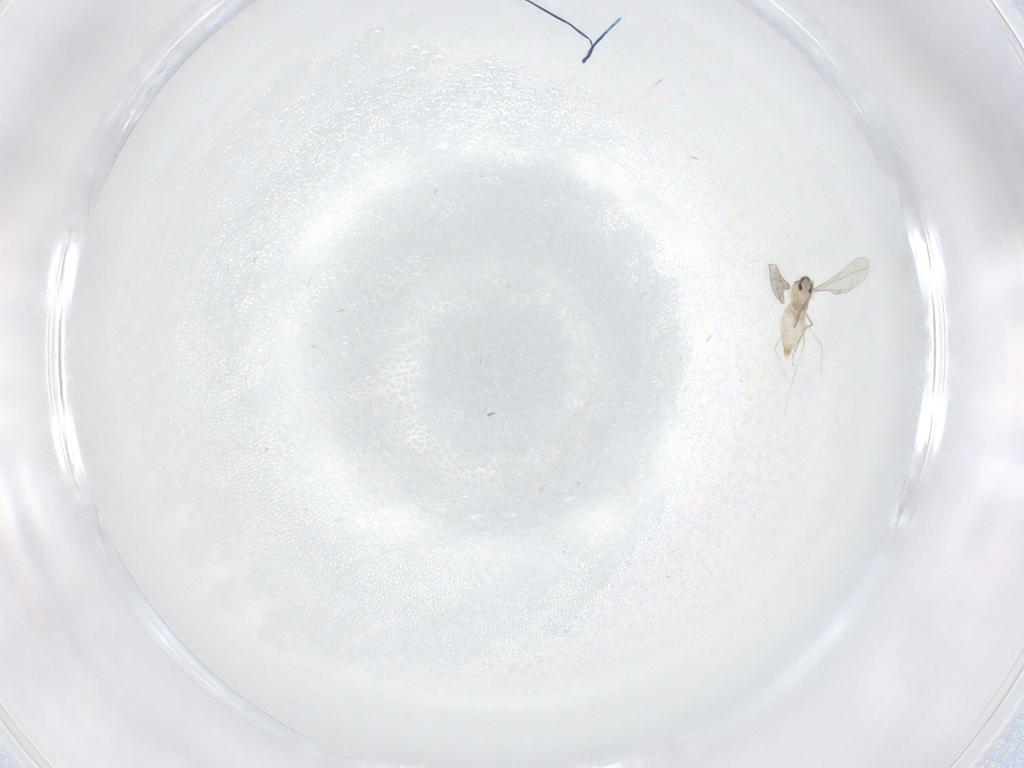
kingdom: Animalia
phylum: Arthropoda
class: Insecta
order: Diptera
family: Cecidomyiidae
